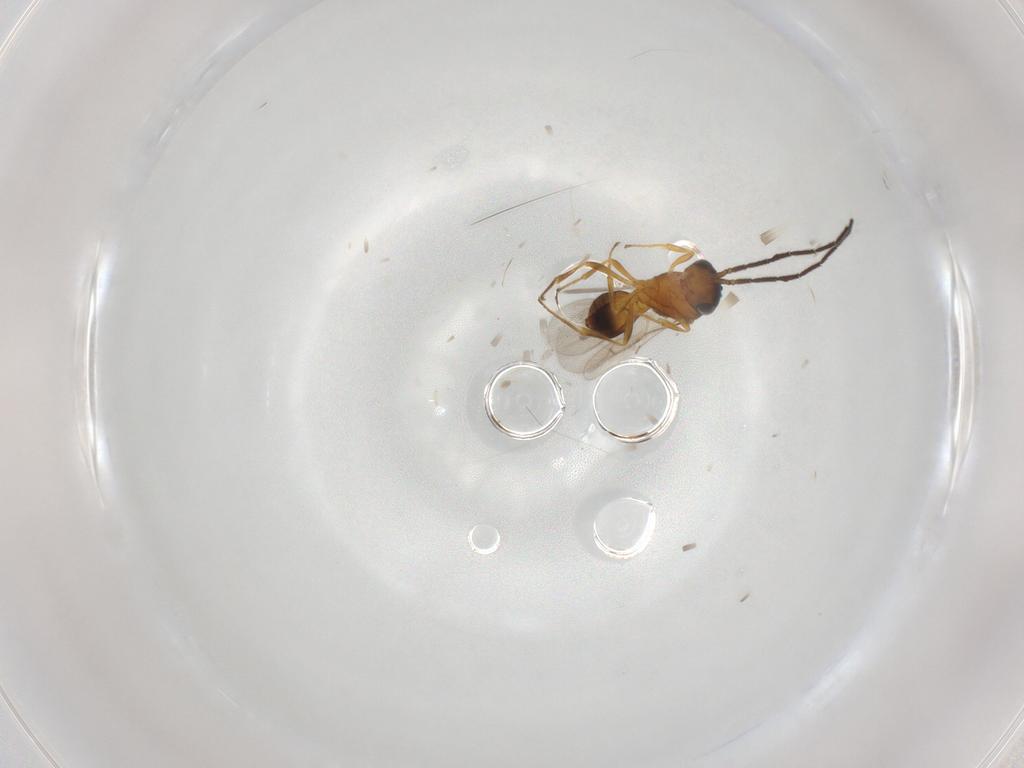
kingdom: Animalia
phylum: Arthropoda
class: Insecta
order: Hymenoptera
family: Scelionidae
